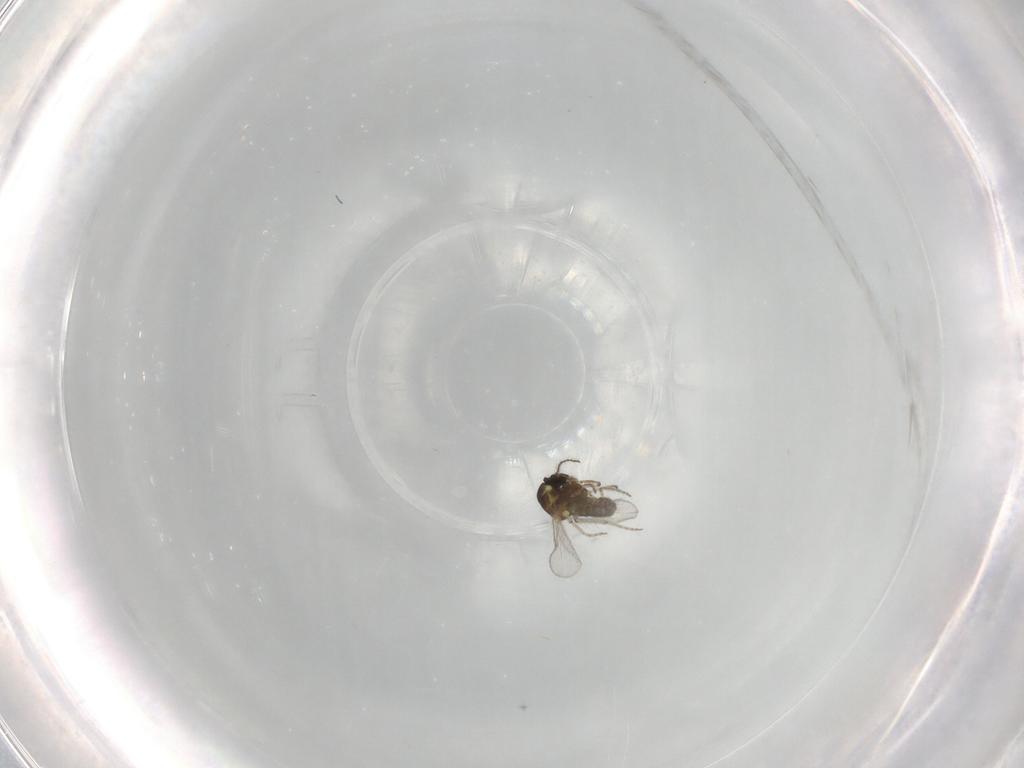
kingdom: Animalia
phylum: Arthropoda
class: Insecta
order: Diptera
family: Ceratopogonidae
